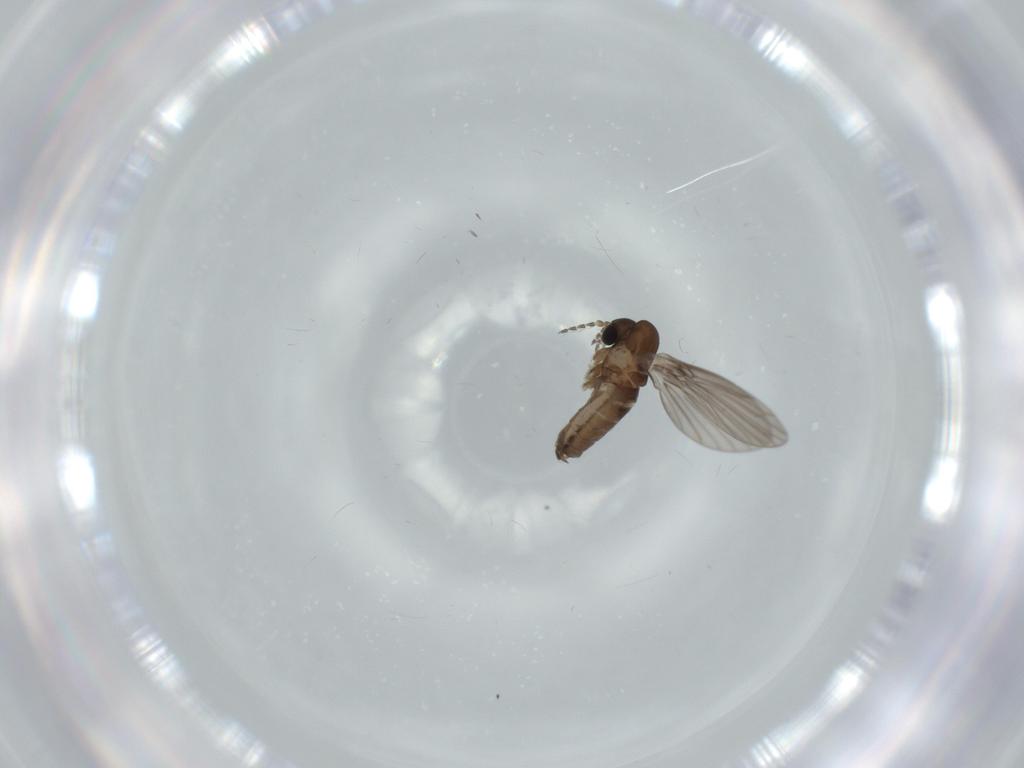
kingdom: Animalia
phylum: Arthropoda
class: Insecta
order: Diptera
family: Psychodidae
